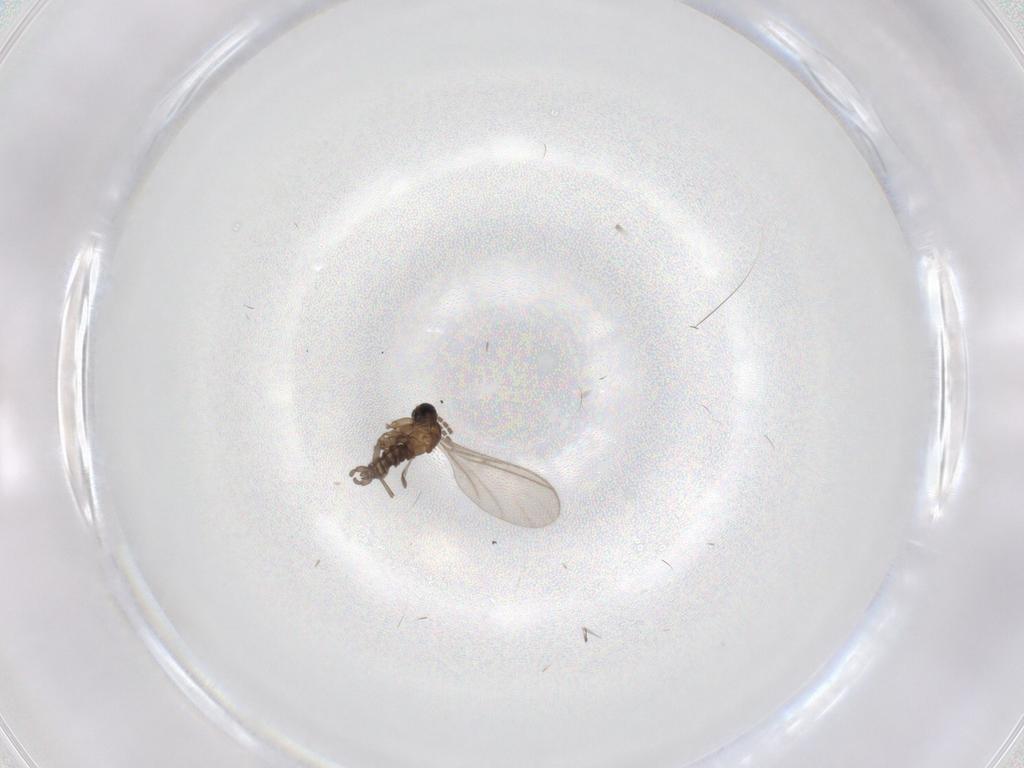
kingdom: Animalia
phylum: Arthropoda
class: Insecta
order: Diptera
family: Sciaridae
